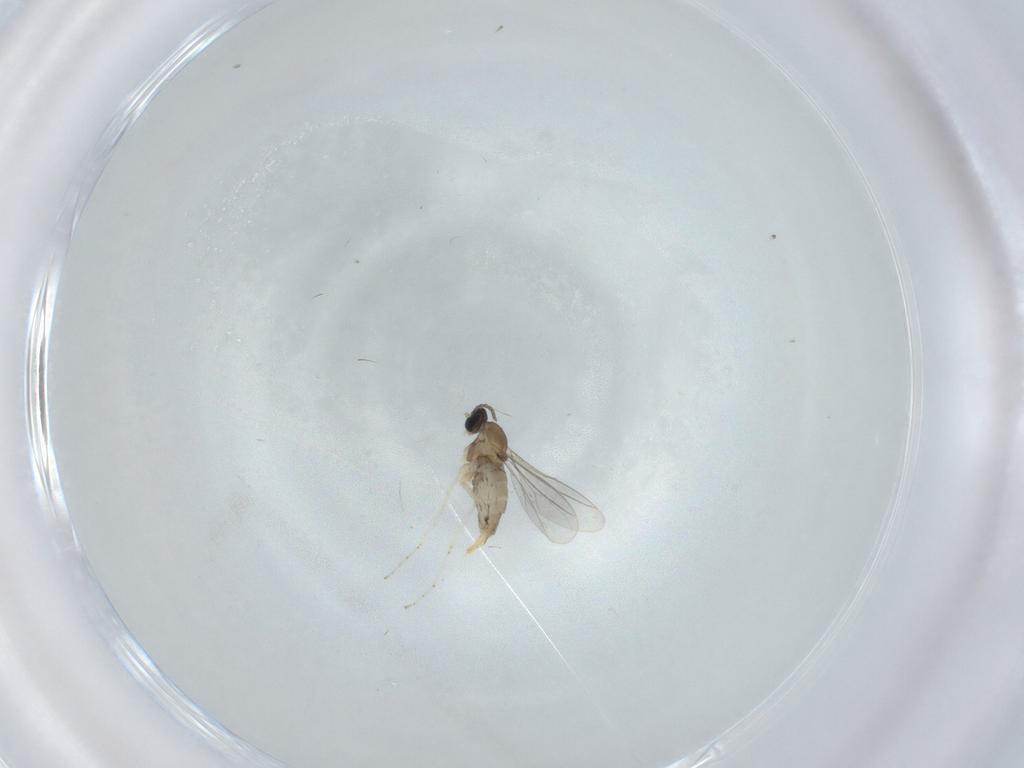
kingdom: Animalia
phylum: Arthropoda
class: Insecta
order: Diptera
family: Cecidomyiidae
